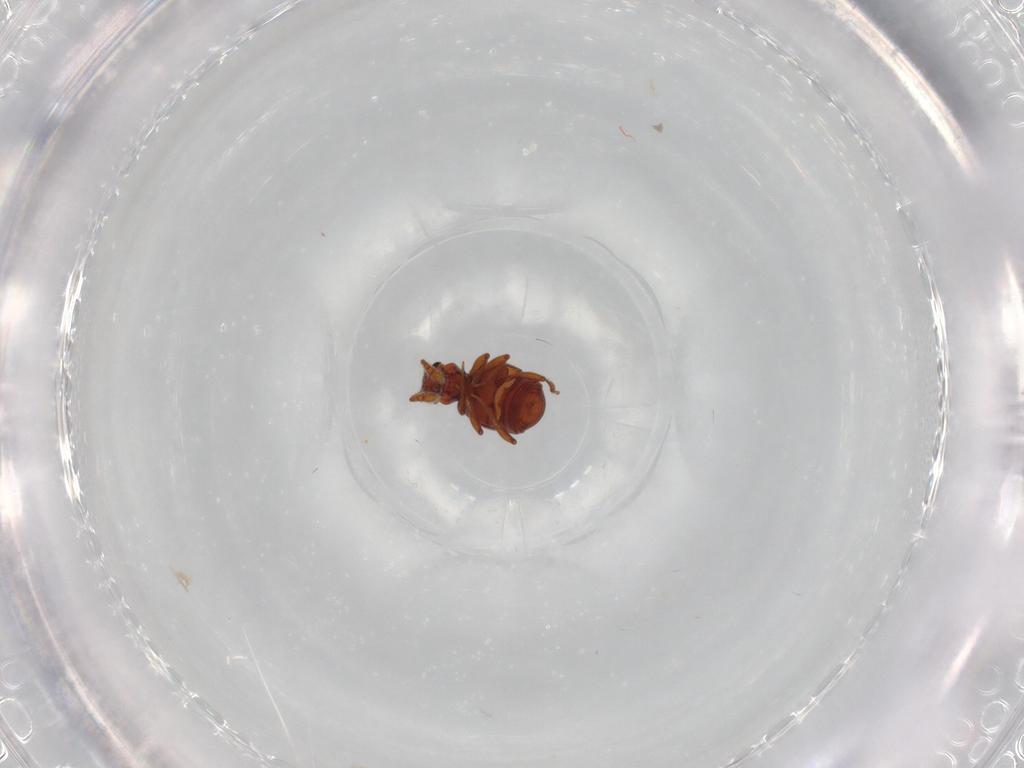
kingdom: Animalia
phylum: Arthropoda
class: Insecta
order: Coleoptera
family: Staphylinidae
